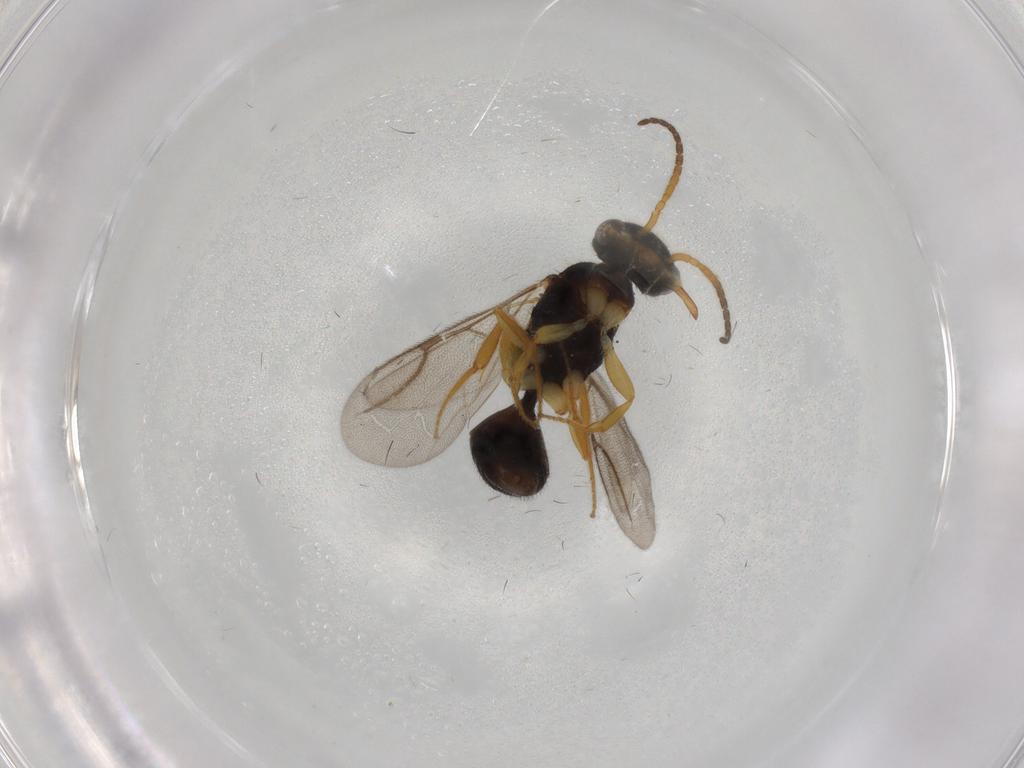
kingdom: Animalia
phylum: Arthropoda
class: Insecta
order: Hymenoptera
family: Bethylidae
